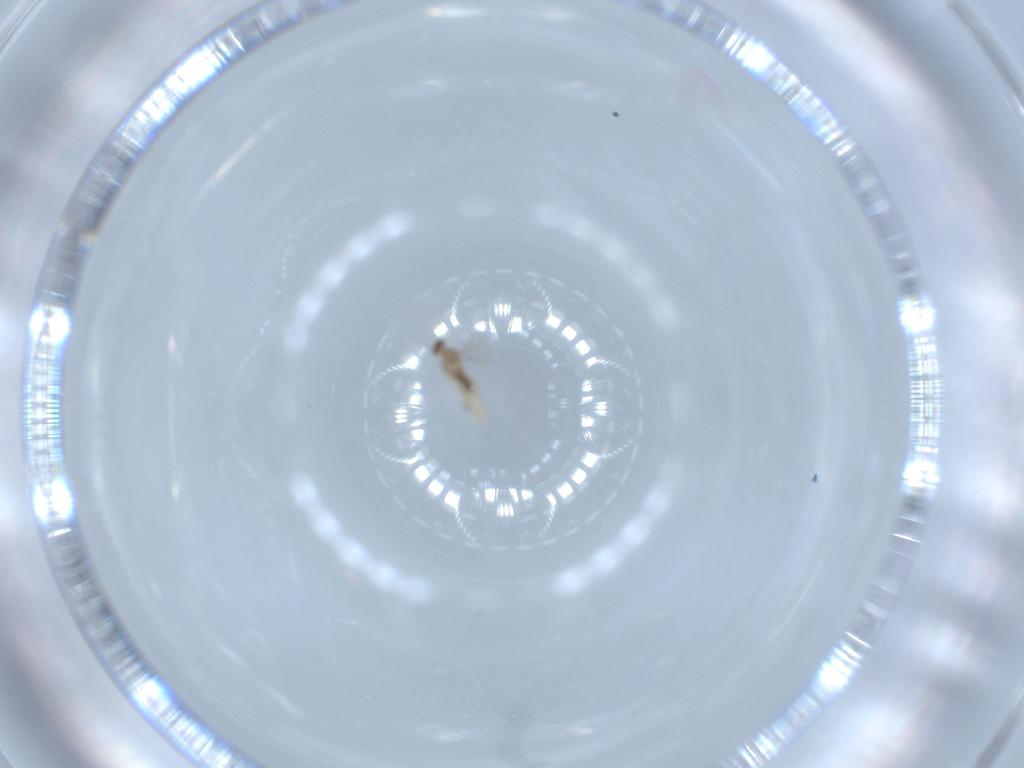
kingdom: Animalia
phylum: Arthropoda
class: Insecta
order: Diptera
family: Cecidomyiidae
